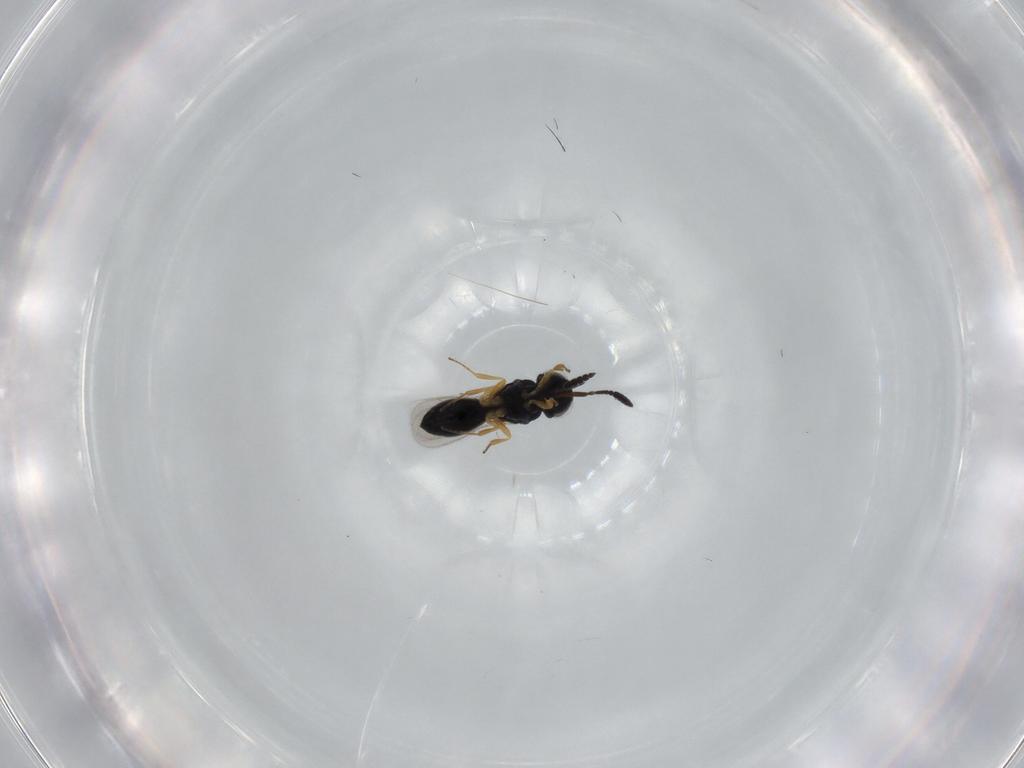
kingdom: Animalia
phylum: Arthropoda
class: Insecta
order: Hymenoptera
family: Scelionidae
